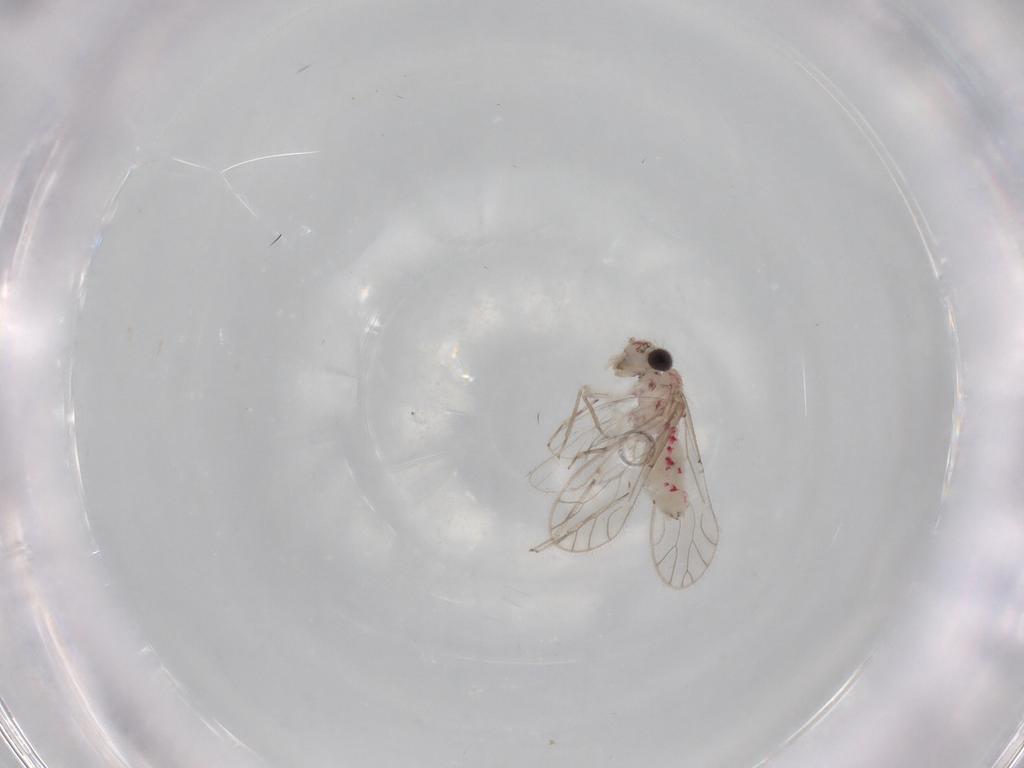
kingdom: Animalia
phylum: Arthropoda
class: Insecta
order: Psocodea
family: Caeciliusidae
